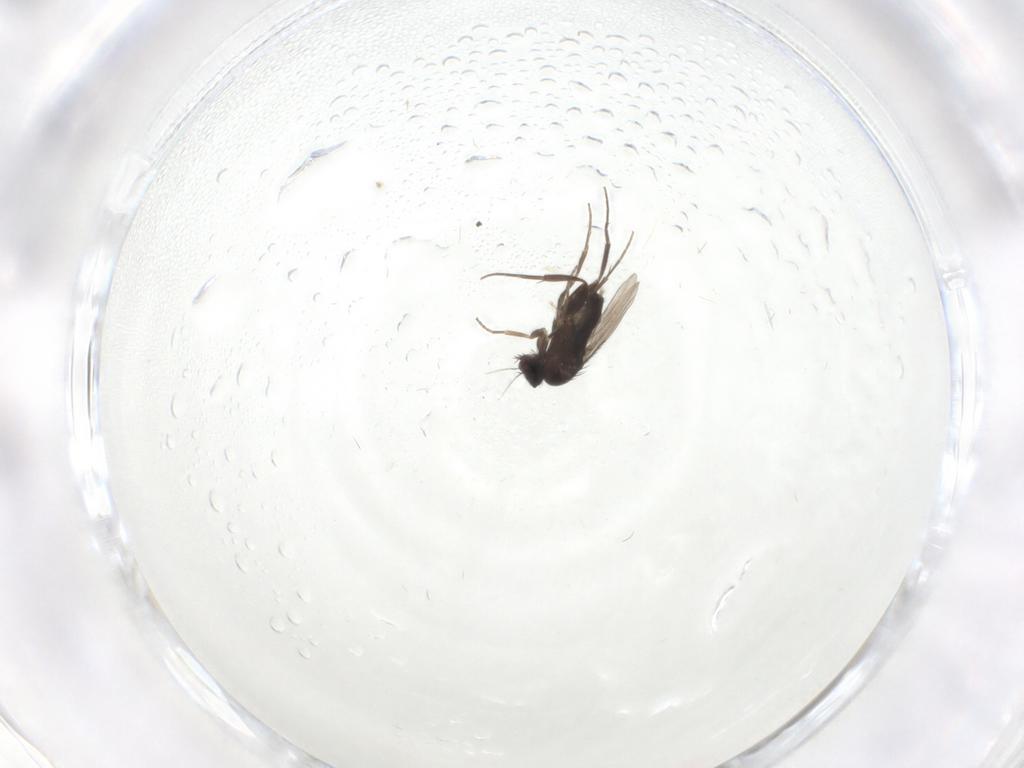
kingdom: Animalia
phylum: Arthropoda
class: Insecta
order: Diptera
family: Phoridae
